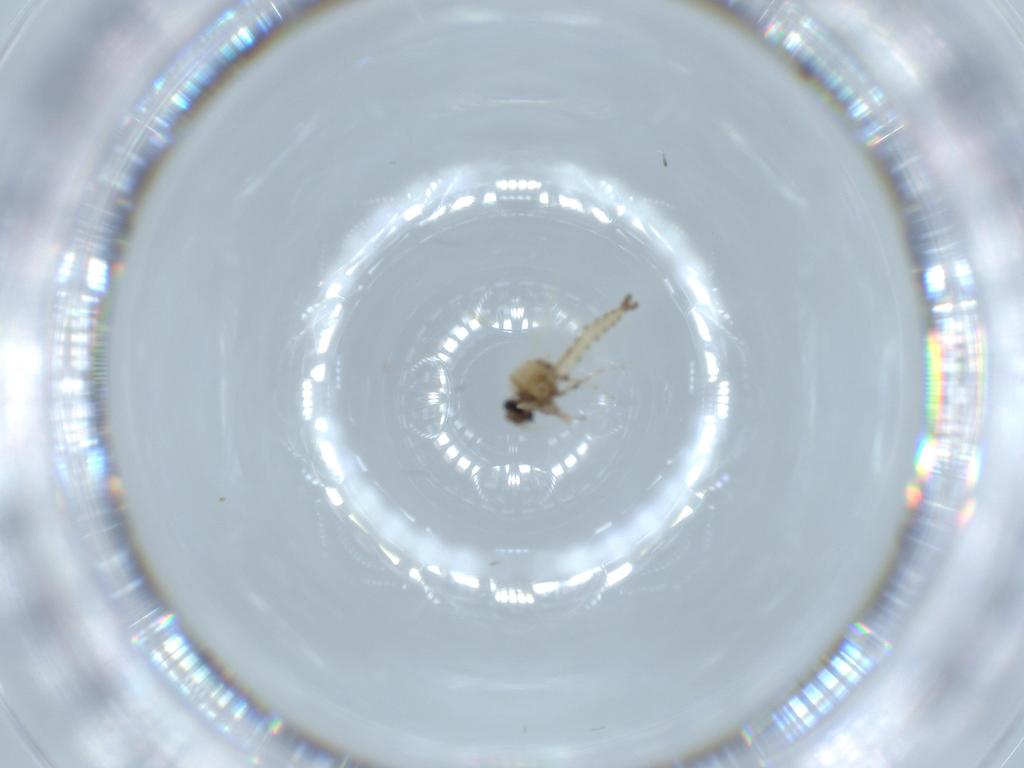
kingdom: Animalia
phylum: Arthropoda
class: Insecta
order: Diptera
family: Ceratopogonidae
